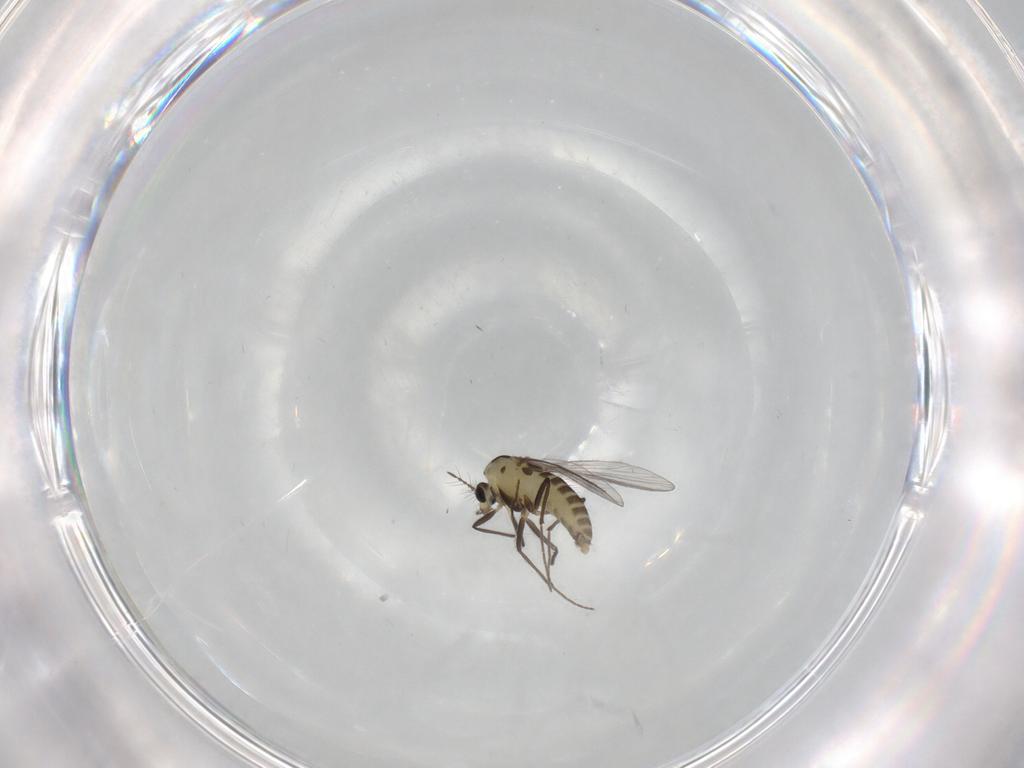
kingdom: Animalia
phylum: Arthropoda
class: Insecta
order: Diptera
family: Chironomidae
